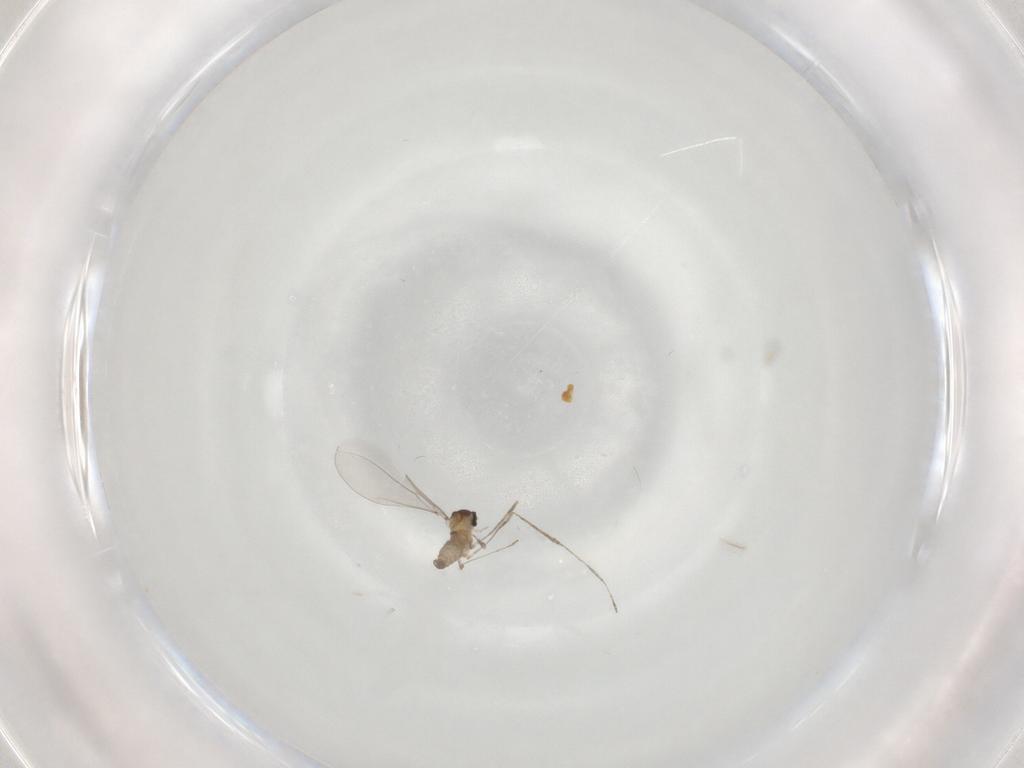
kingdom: Animalia
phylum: Arthropoda
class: Insecta
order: Diptera
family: Cecidomyiidae
